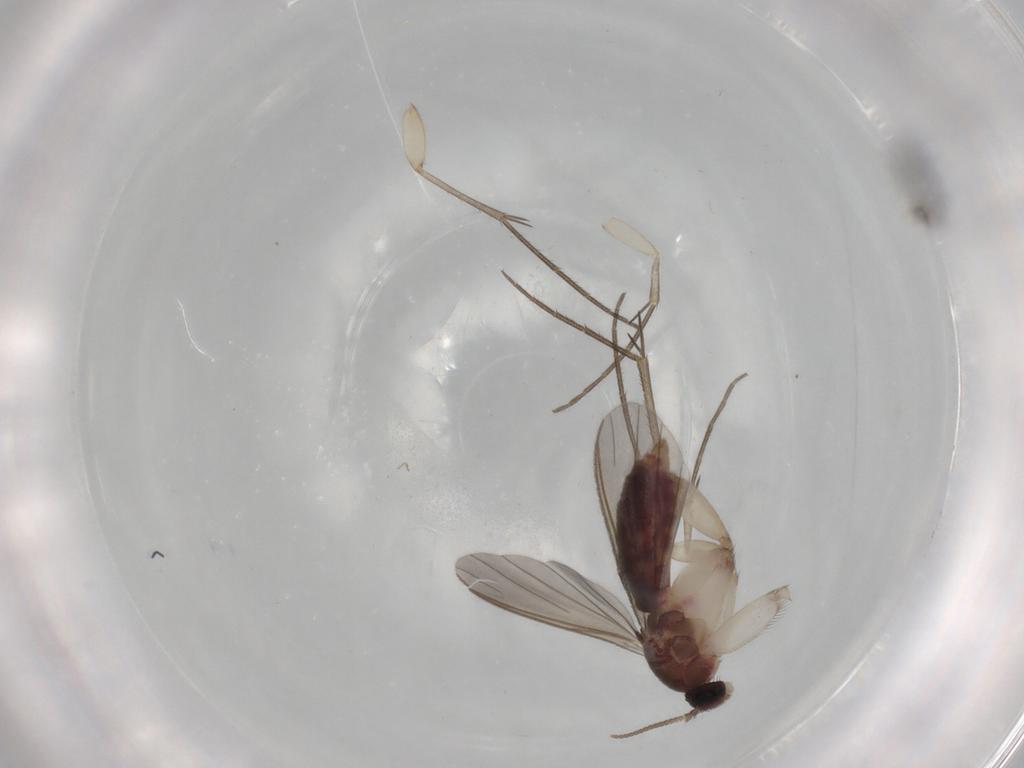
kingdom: Animalia
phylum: Arthropoda
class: Insecta
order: Diptera
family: Mycetophilidae
